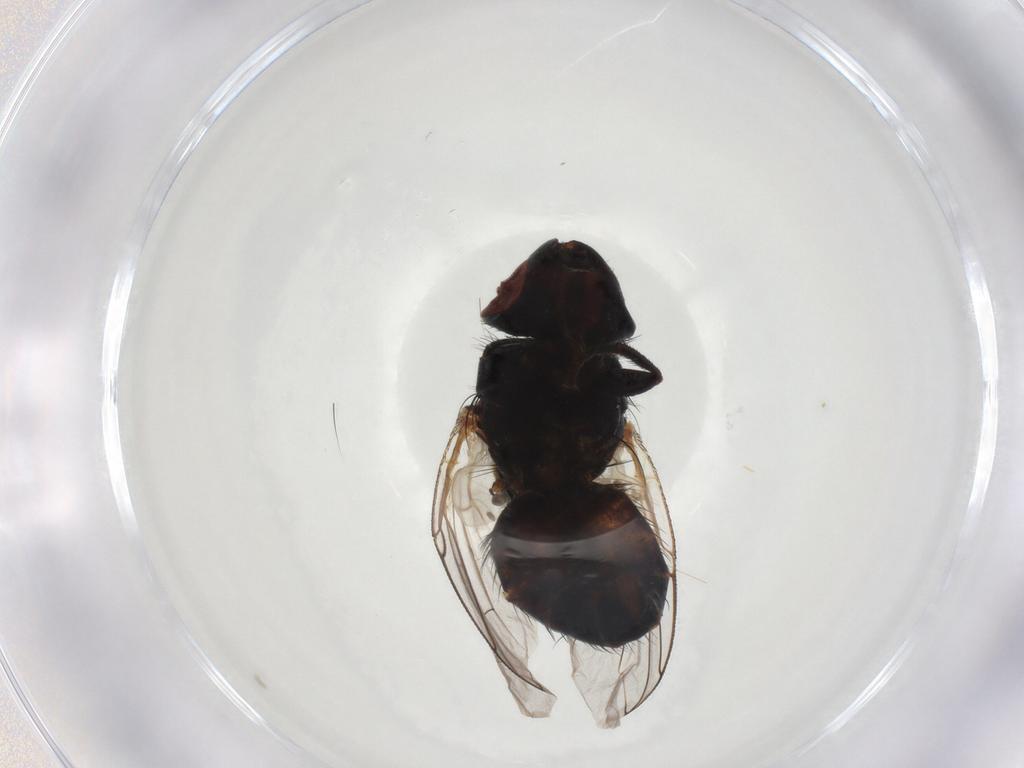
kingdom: Animalia
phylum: Arthropoda
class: Insecta
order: Diptera
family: Sarcophagidae
